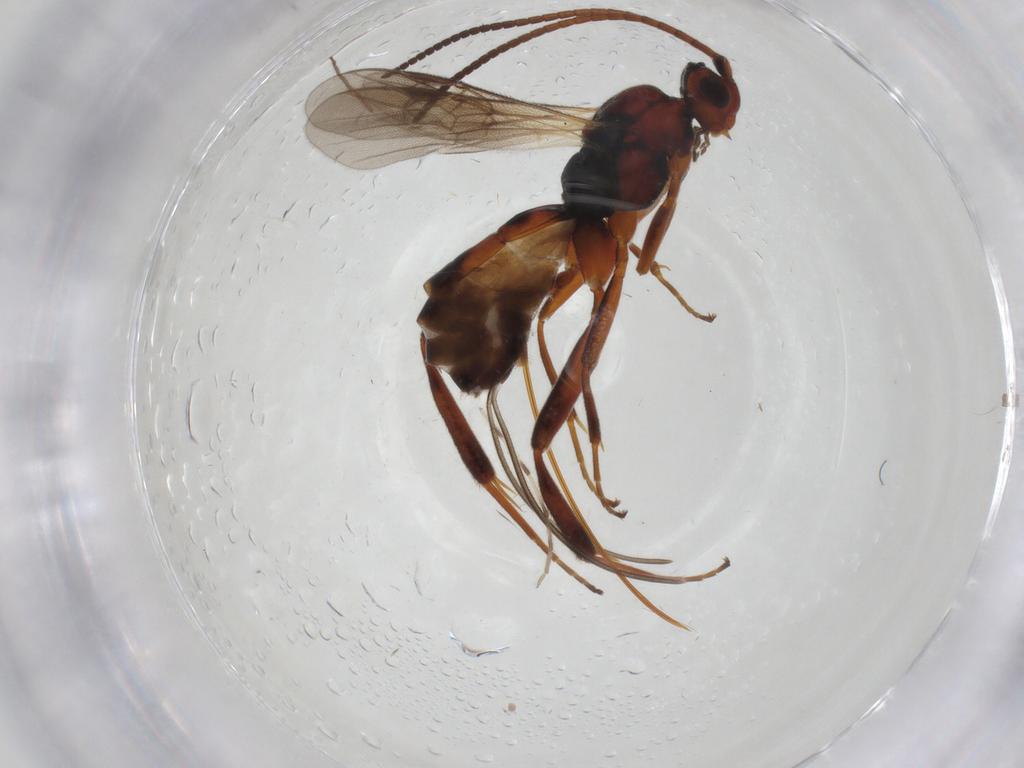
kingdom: Animalia
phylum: Arthropoda
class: Insecta
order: Hymenoptera
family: Braconidae
